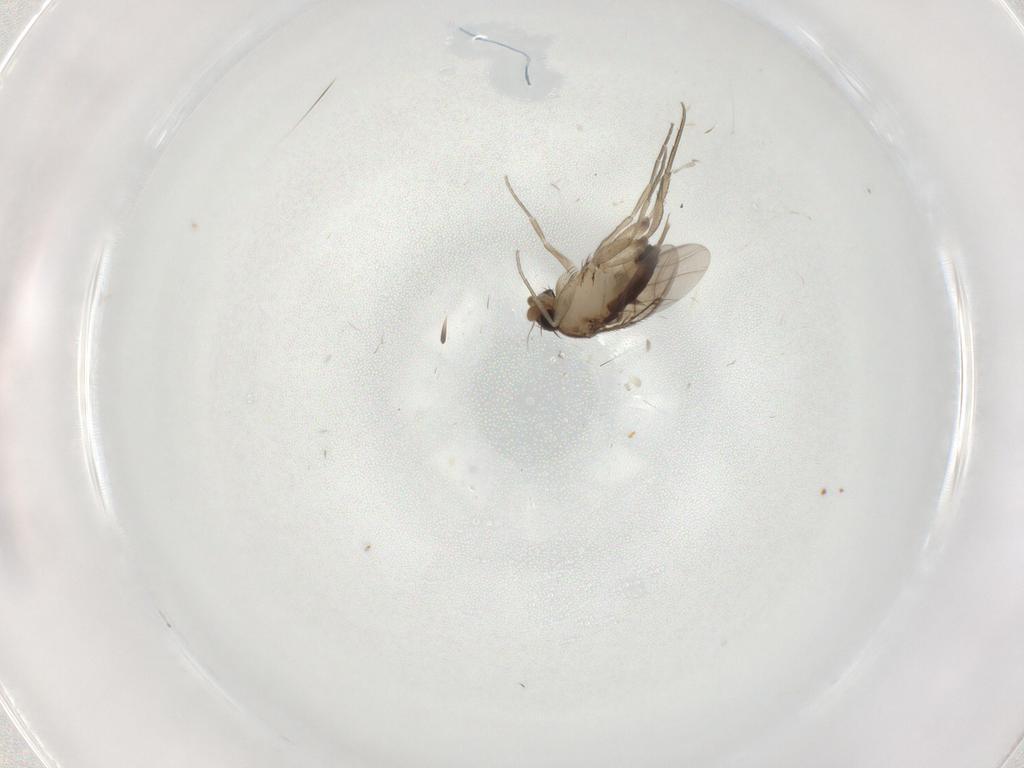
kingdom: Animalia
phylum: Arthropoda
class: Insecta
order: Diptera
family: Phoridae
